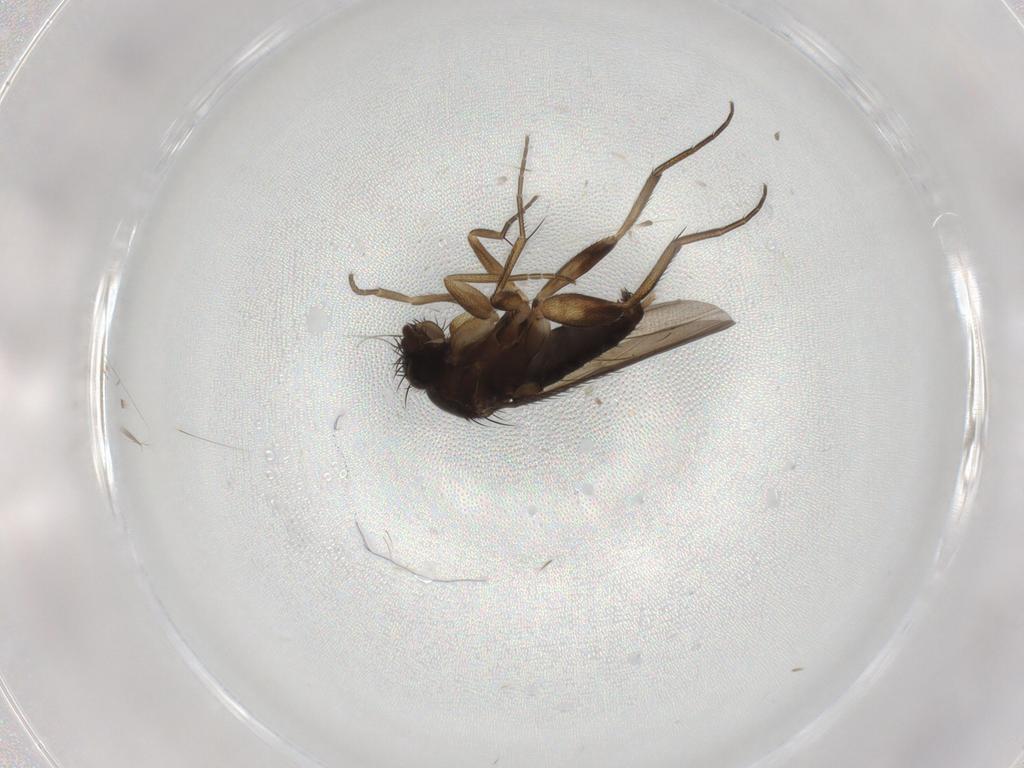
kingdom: Animalia
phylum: Arthropoda
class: Insecta
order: Diptera
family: Phoridae
